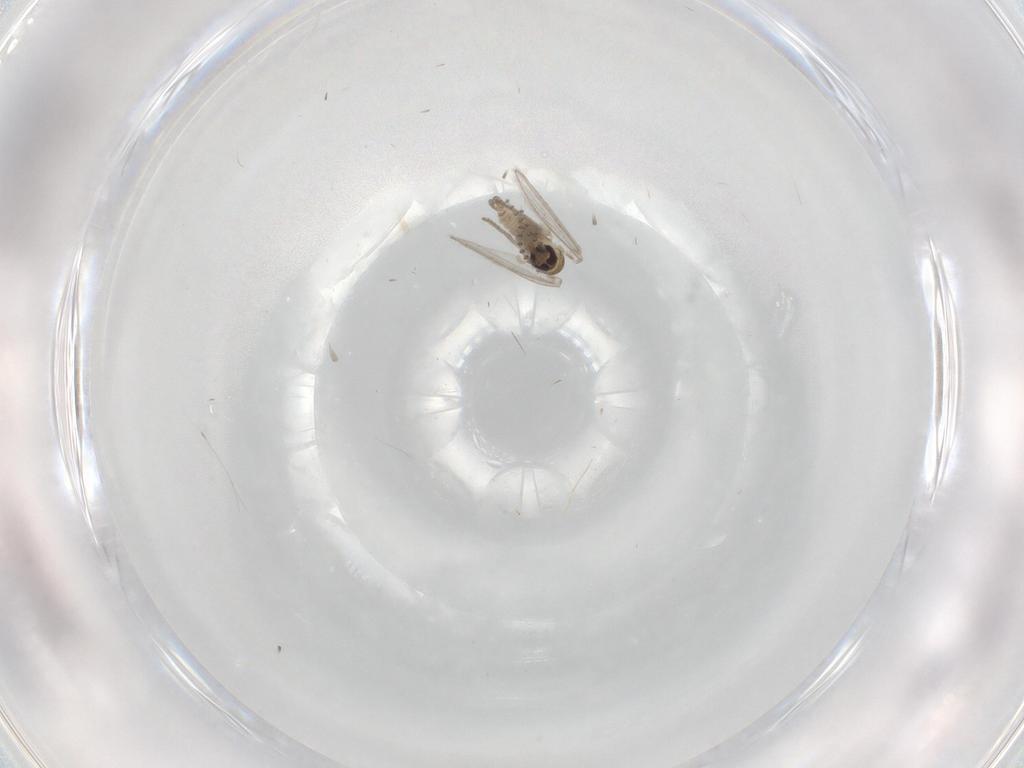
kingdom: Animalia
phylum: Arthropoda
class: Insecta
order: Diptera
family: Psychodidae
